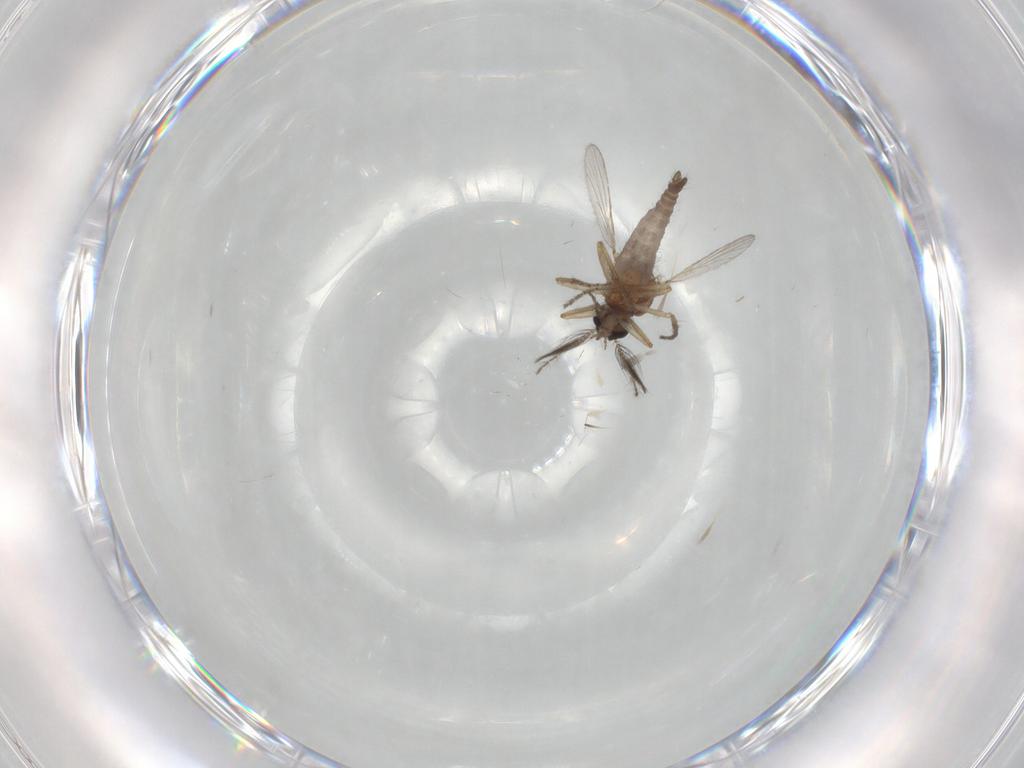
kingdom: Animalia
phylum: Arthropoda
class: Insecta
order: Diptera
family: Psychodidae
